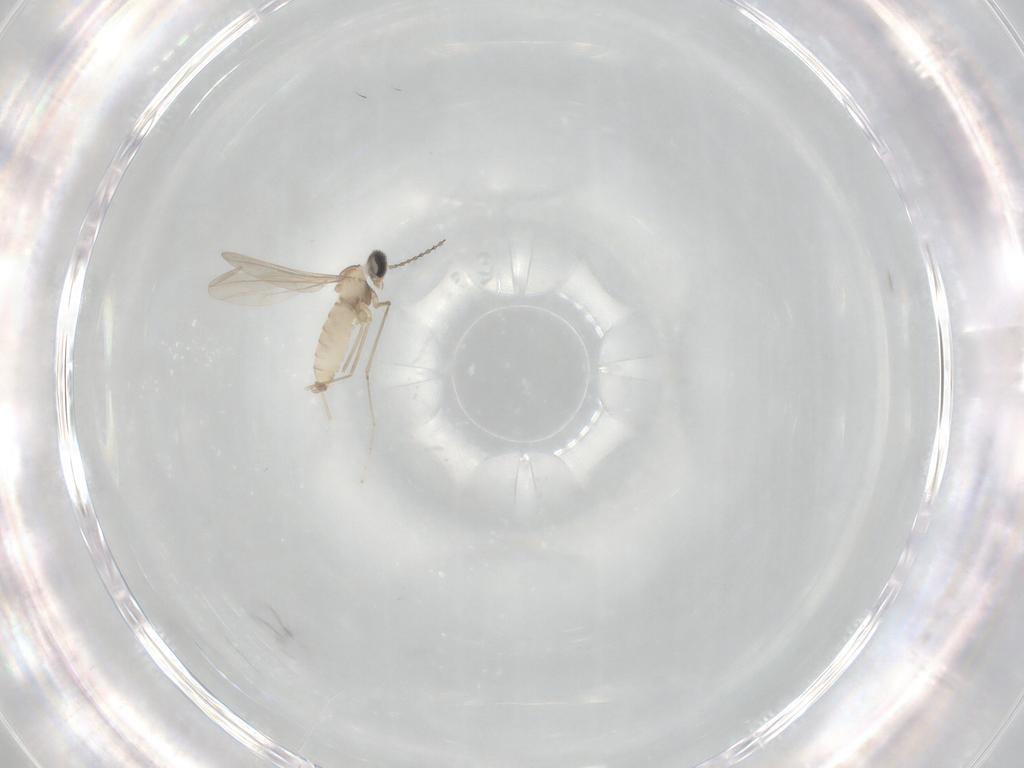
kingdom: Animalia
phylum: Arthropoda
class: Insecta
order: Diptera
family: Cecidomyiidae
